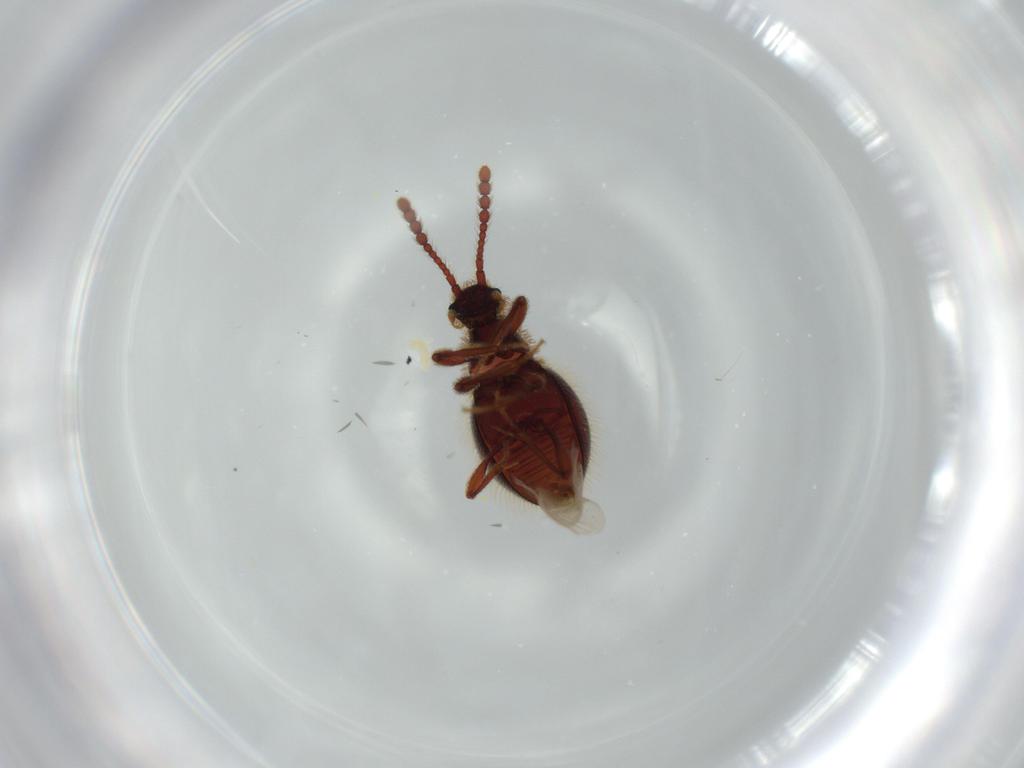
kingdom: Animalia
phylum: Arthropoda
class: Insecta
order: Coleoptera
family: Staphylinidae
